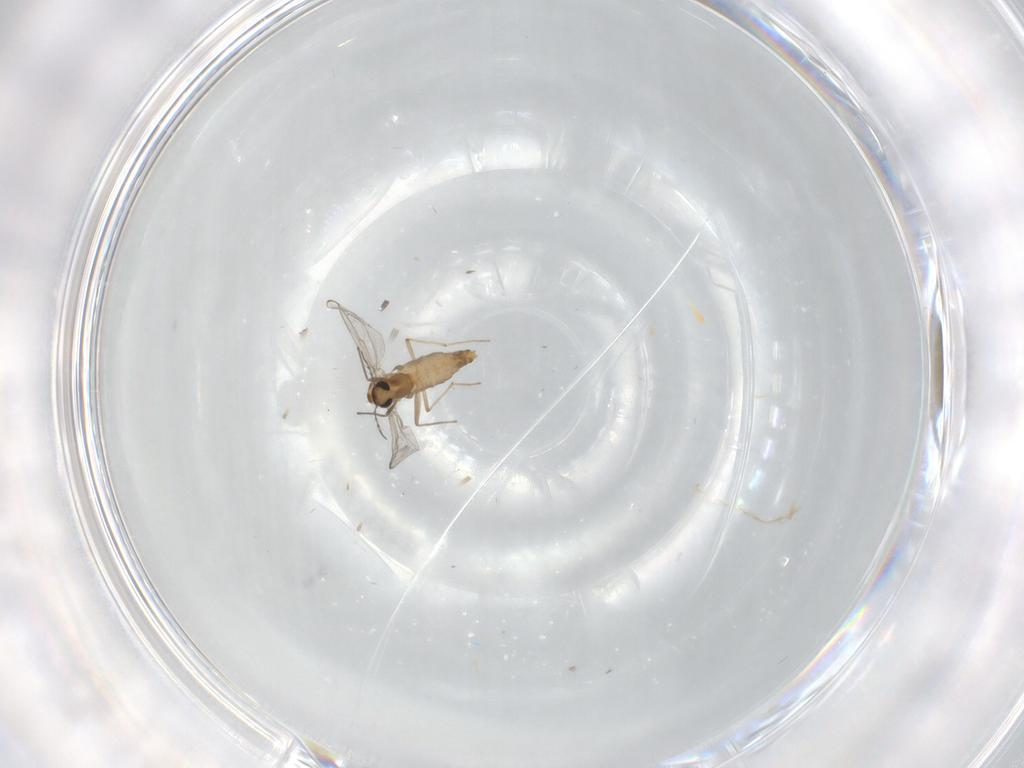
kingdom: Animalia
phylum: Arthropoda
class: Insecta
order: Diptera
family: Chironomidae
